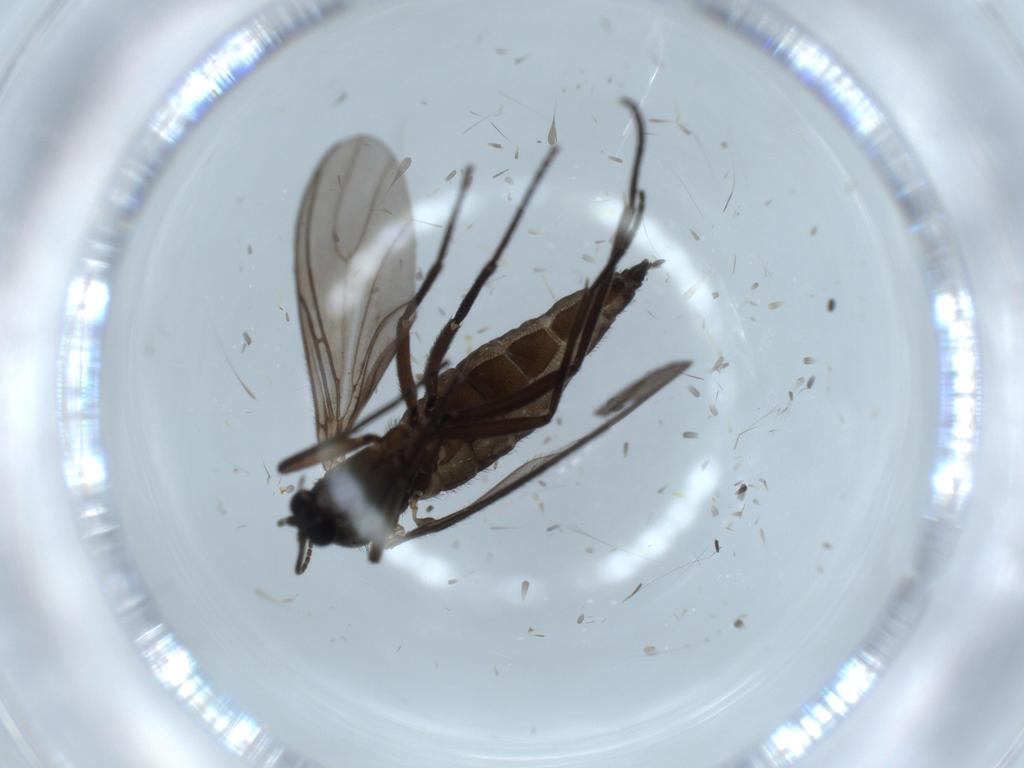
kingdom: Animalia
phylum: Arthropoda
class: Insecta
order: Diptera
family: Sciaridae
